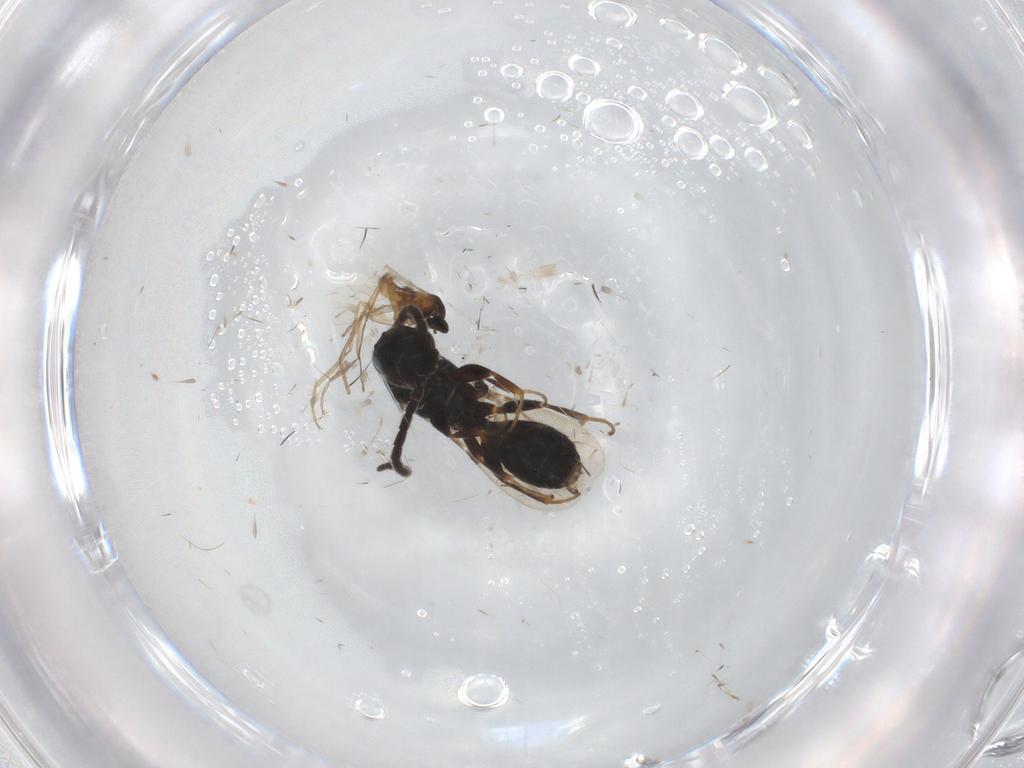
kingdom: Animalia
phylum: Arthropoda
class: Insecta
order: Diptera
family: Cecidomyiidae
